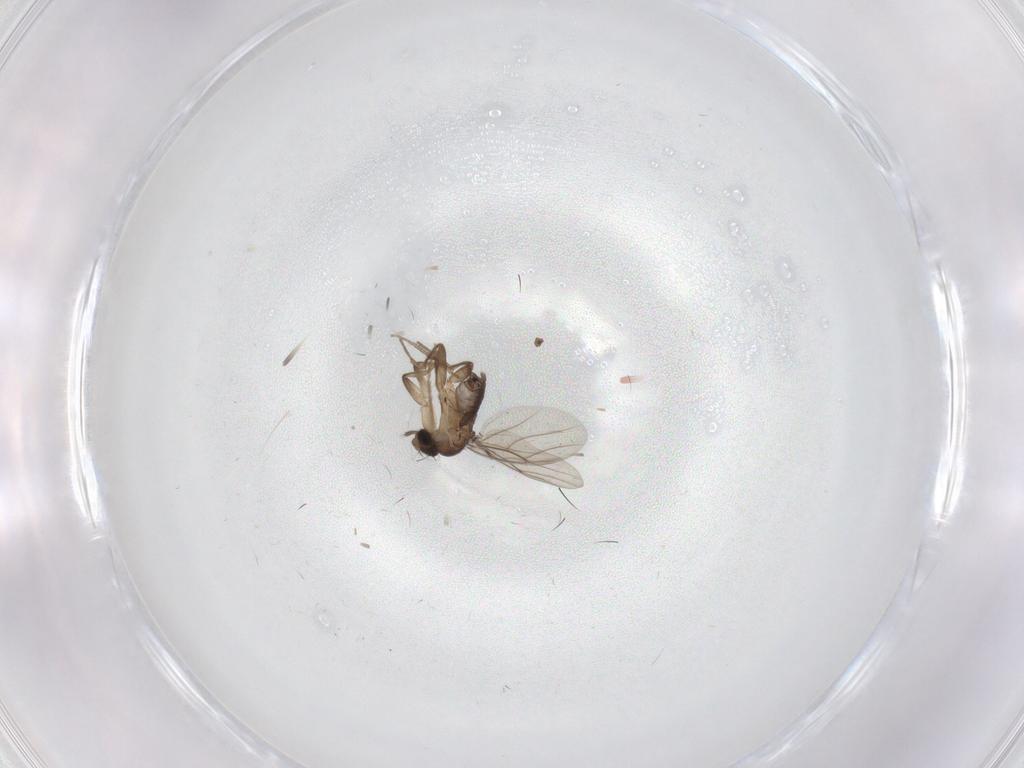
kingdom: Animalia
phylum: Arthropoda
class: Insecta
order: Diptera
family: Phoridae
